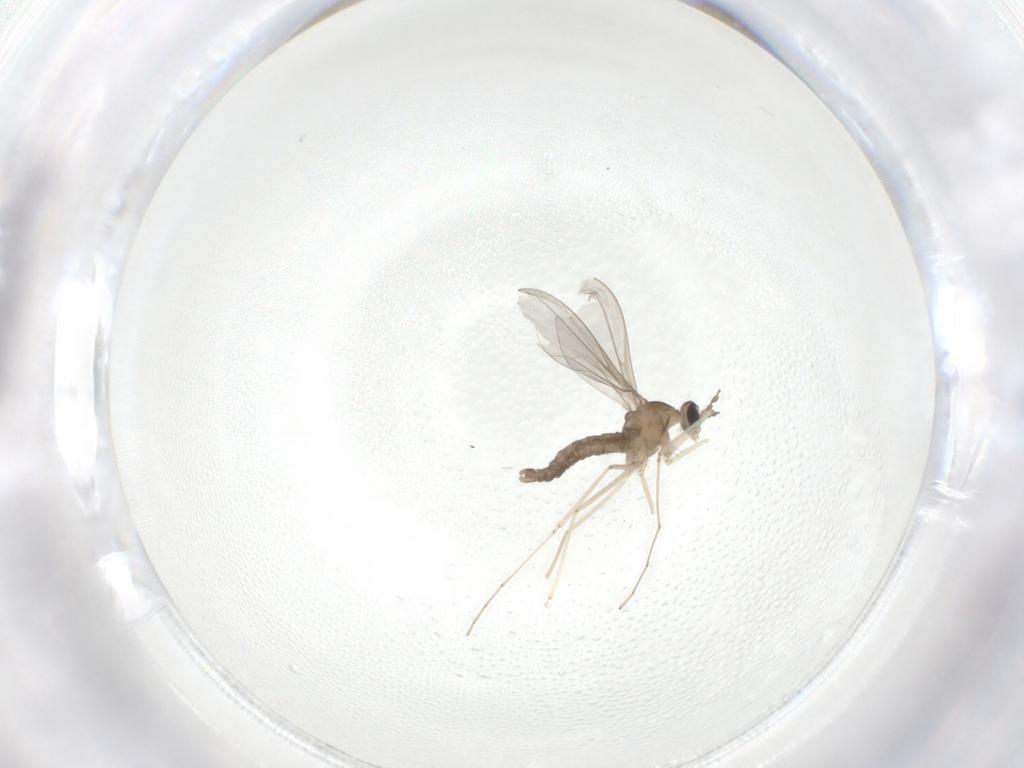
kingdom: Animalia
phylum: Arthropoda
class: Insecta
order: Diptera
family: Cecidomyiidae
